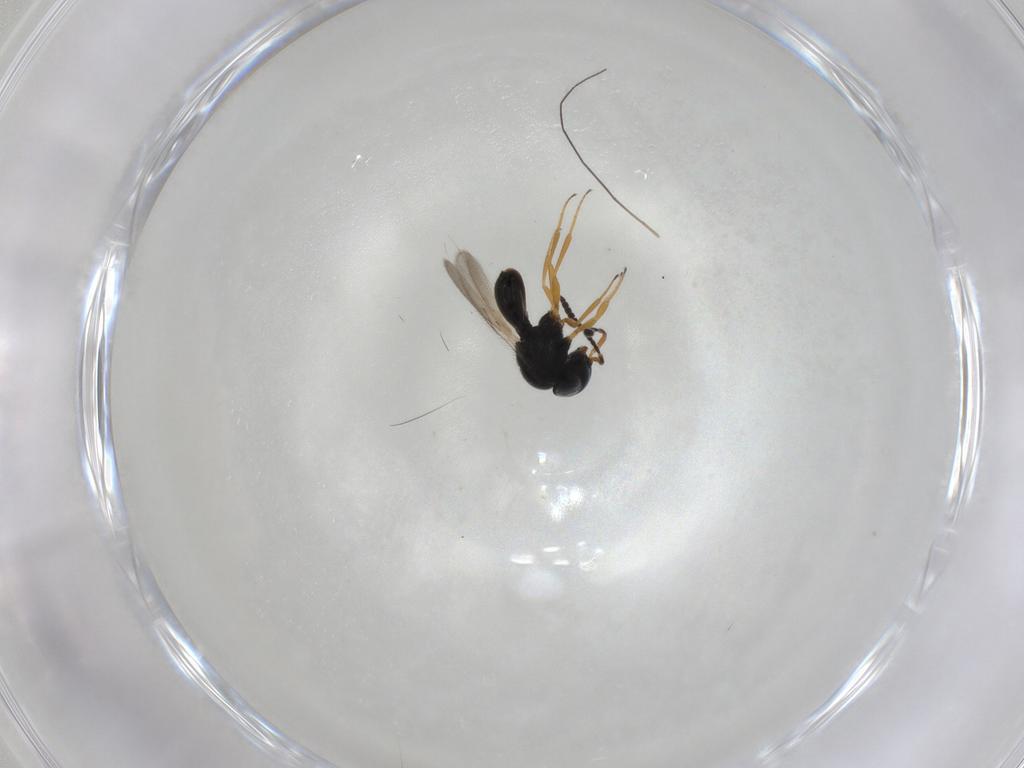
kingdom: Animalia
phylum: Arthropoda
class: Insecta
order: Hymenoptera
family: Scelionidae
